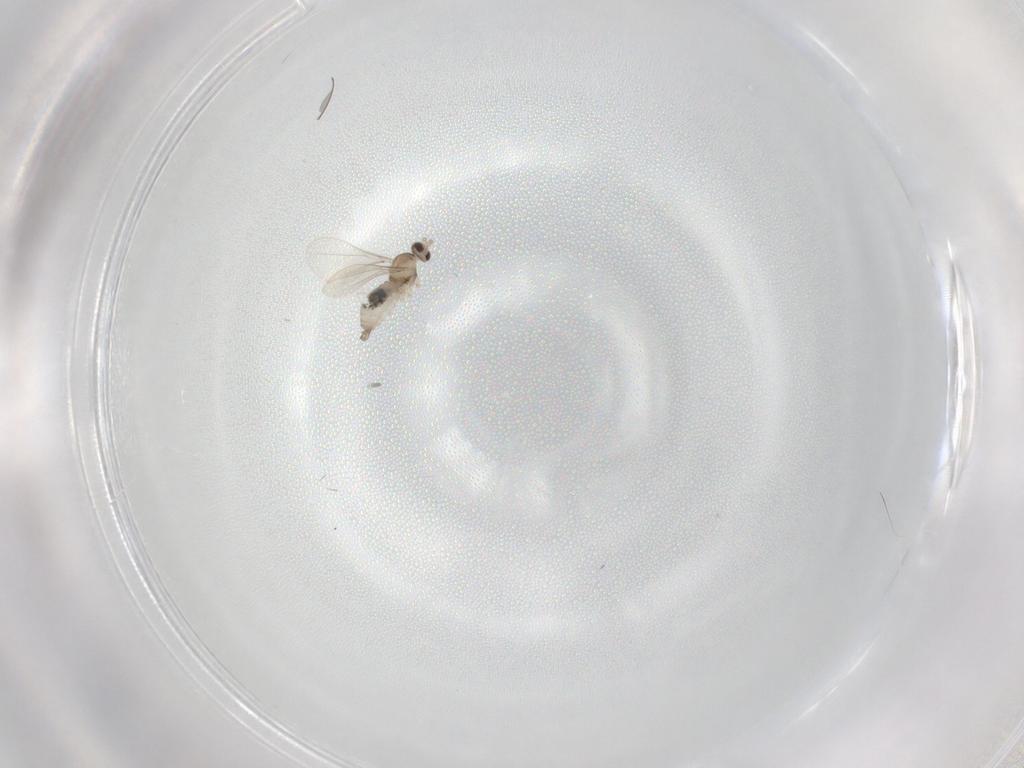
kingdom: Animalia
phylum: Arthropoda
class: Insecta
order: Diptera
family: Cecidomyiidae
